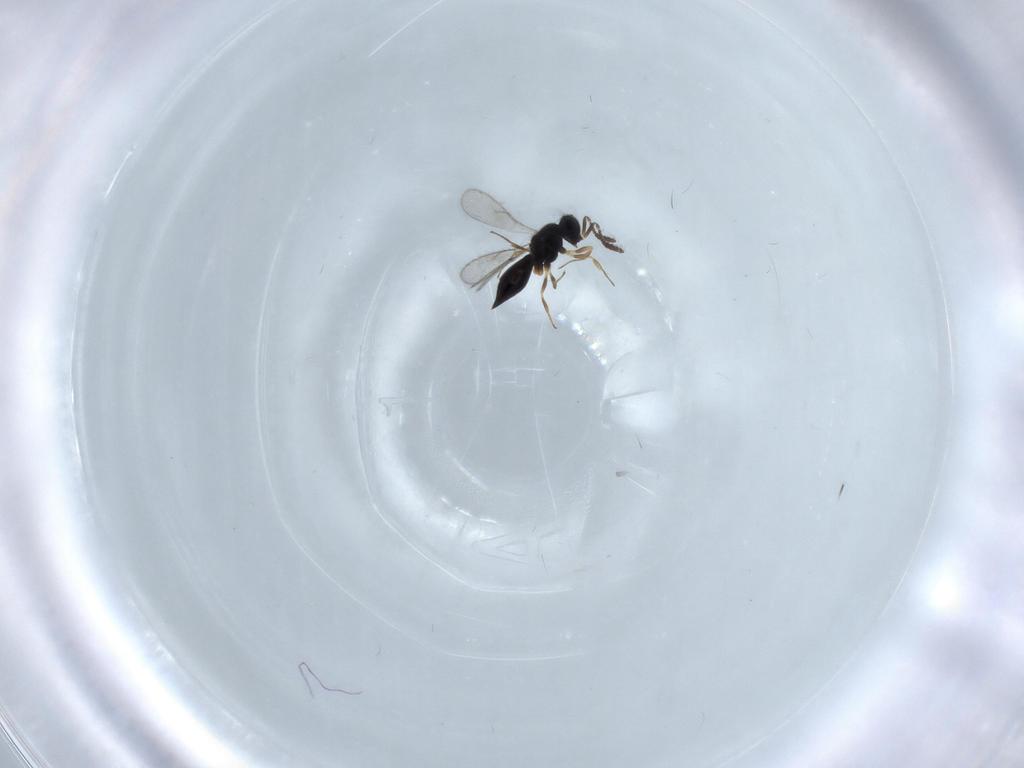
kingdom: Animalia
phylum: Arthropoda
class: Insecta
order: Hymenoptera
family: Scelionidae
